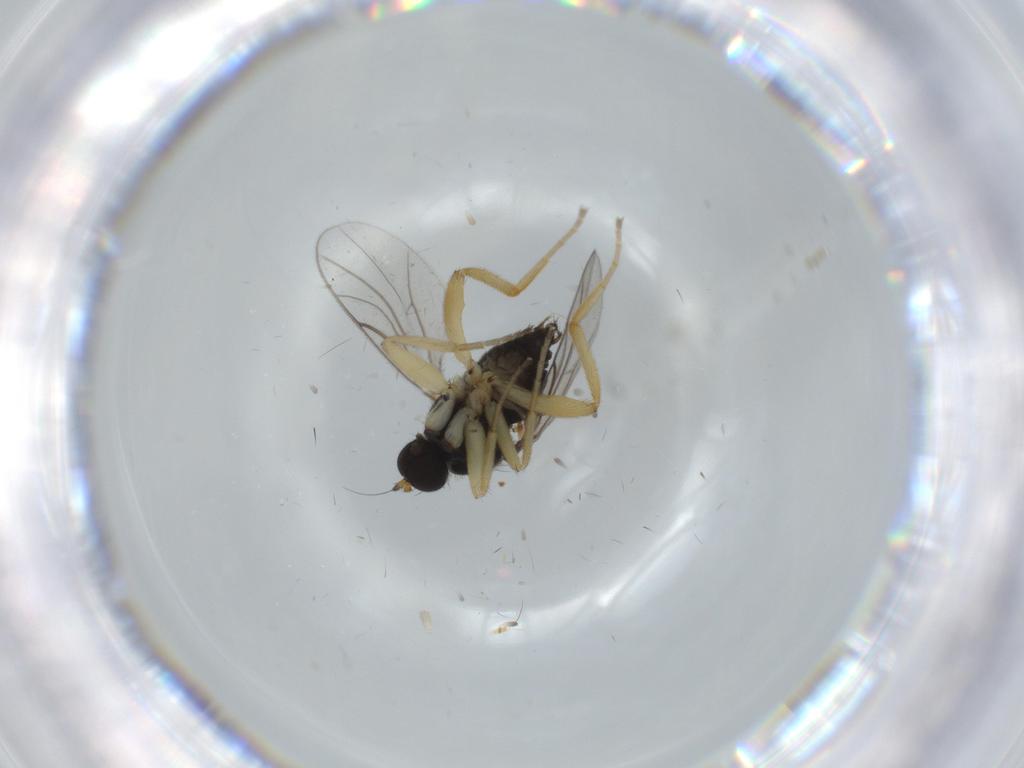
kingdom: Animalia
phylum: Arthropoda
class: Insecta
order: Diptera
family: Hybotidae
